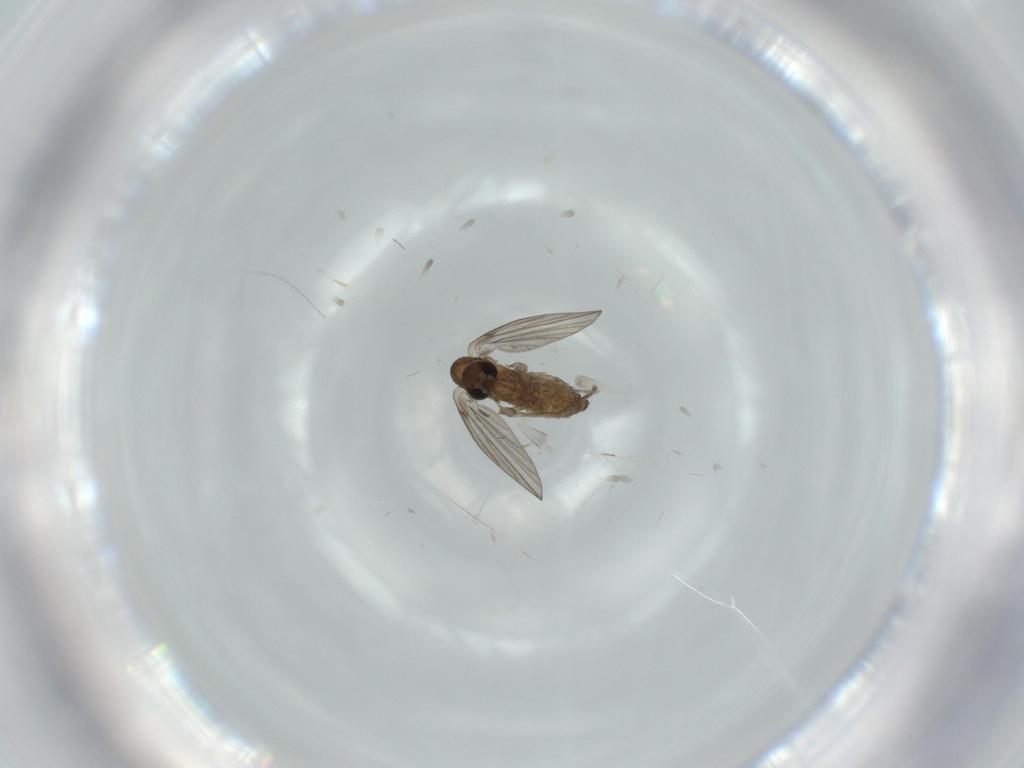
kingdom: Animalia
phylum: Arthropoda
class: Insecta
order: Diptera
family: Psychodidae
